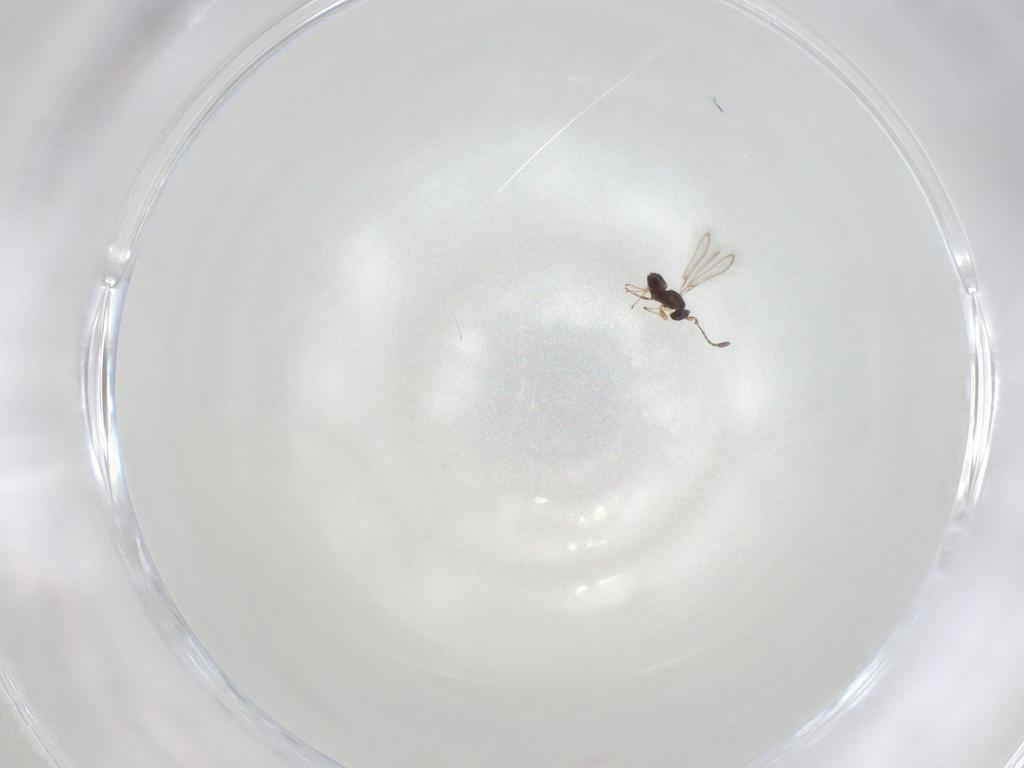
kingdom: Animalia
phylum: Arthropoda
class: Insecta
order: Hymenoptera
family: Mymaridae
